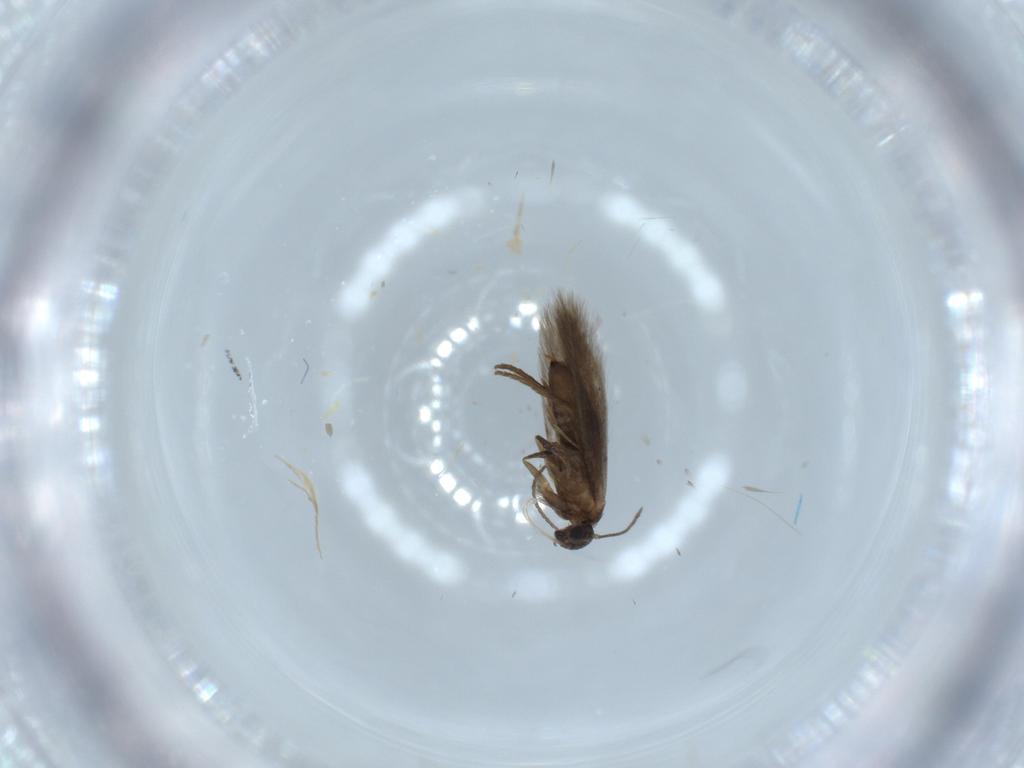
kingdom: Animalia
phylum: Arthropoda
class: Insecta
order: Lepidoptera
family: Heliozelidae
